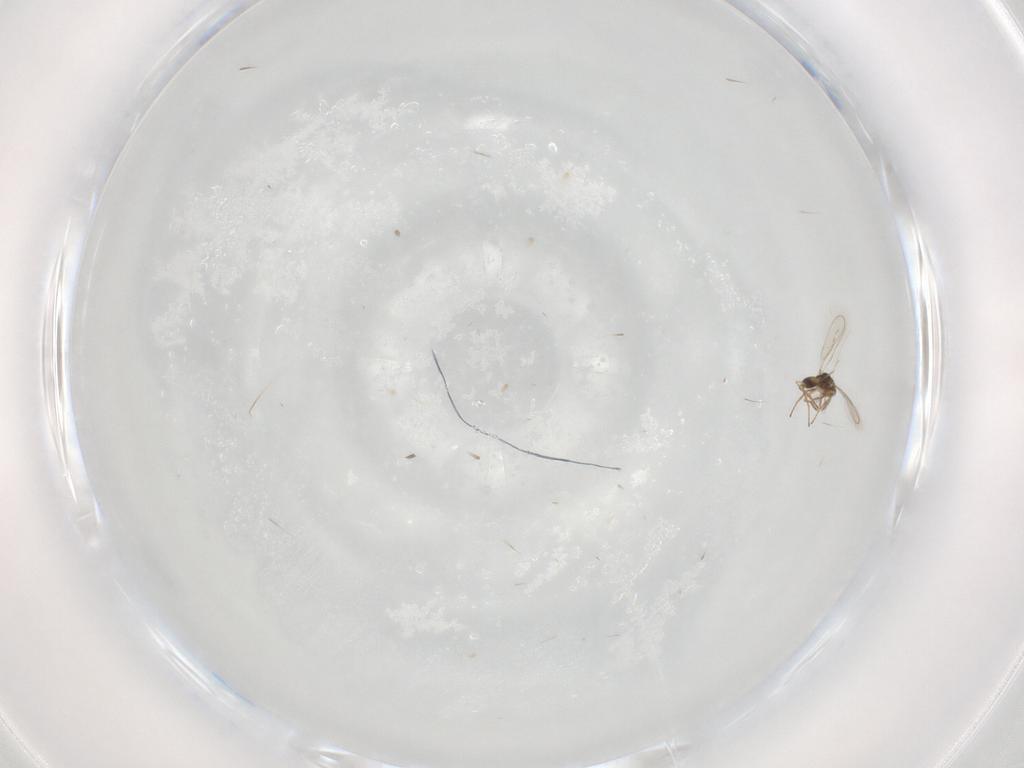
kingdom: Animalia
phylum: Arthropoda
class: Insecta
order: Hymenoptera
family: Eulophidae
